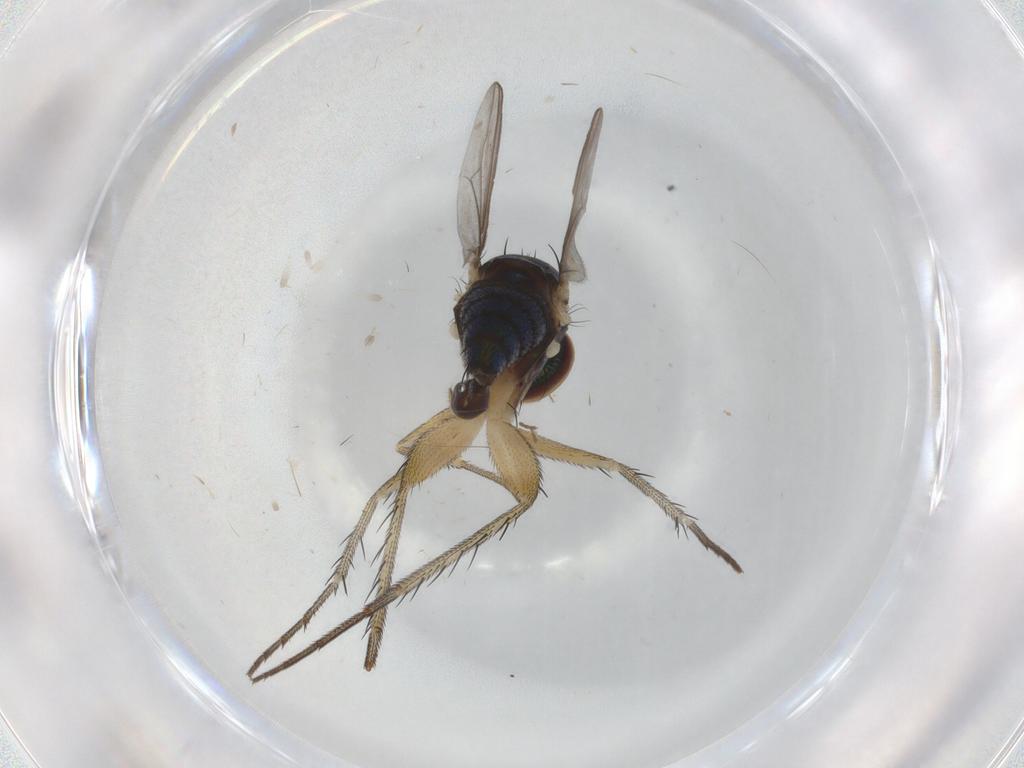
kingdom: Animalia
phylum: Arthropoda
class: Insecta
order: Diptera
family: Dolichopodidae
